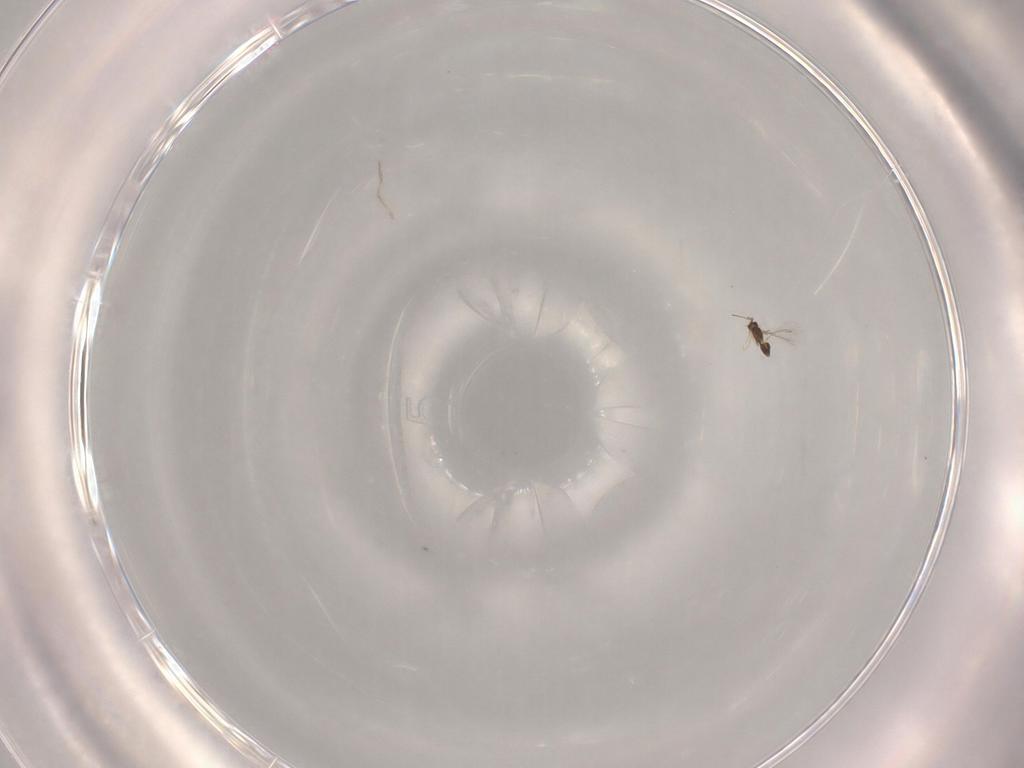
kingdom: Animalia
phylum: Arthropoda
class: Insecta
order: Hymenoptera
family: Mymaridae
